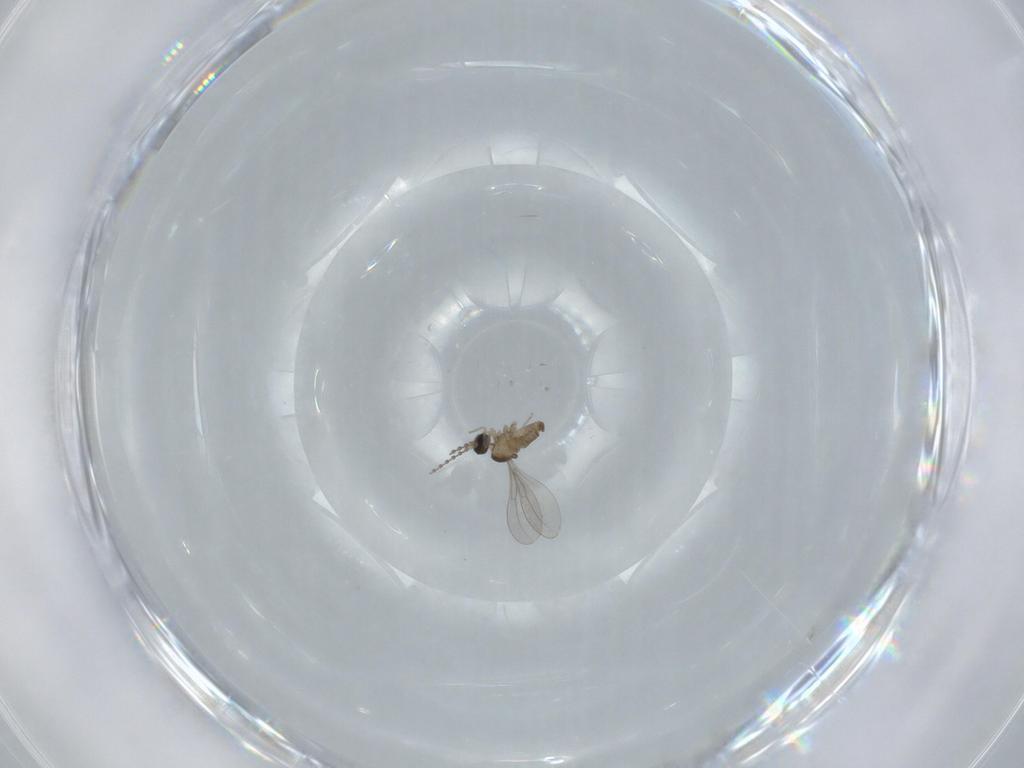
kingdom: Animalia
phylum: Arthropoda
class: Insecta
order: Diptera
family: Cecidomyiidae
